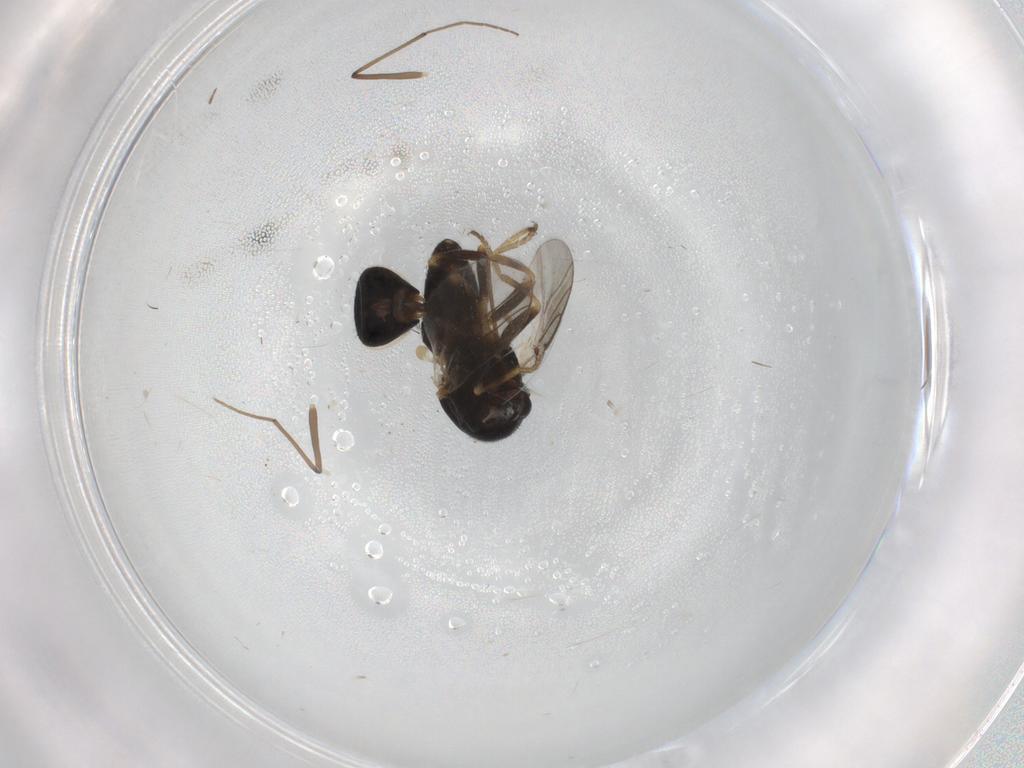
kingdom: Animalia
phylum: Arthropoda
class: Insecta
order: Diptera
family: Chloropidae
